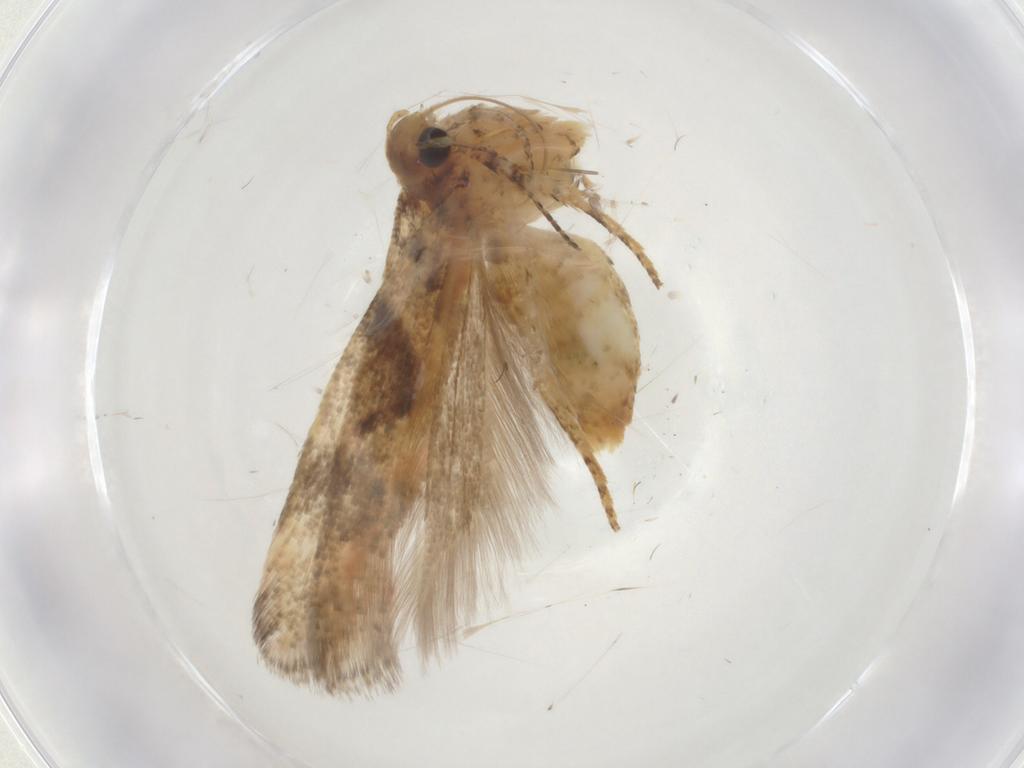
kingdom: Animalia
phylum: Arthropoda
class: Insecta
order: Lepidoptera
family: Gelechiidae
